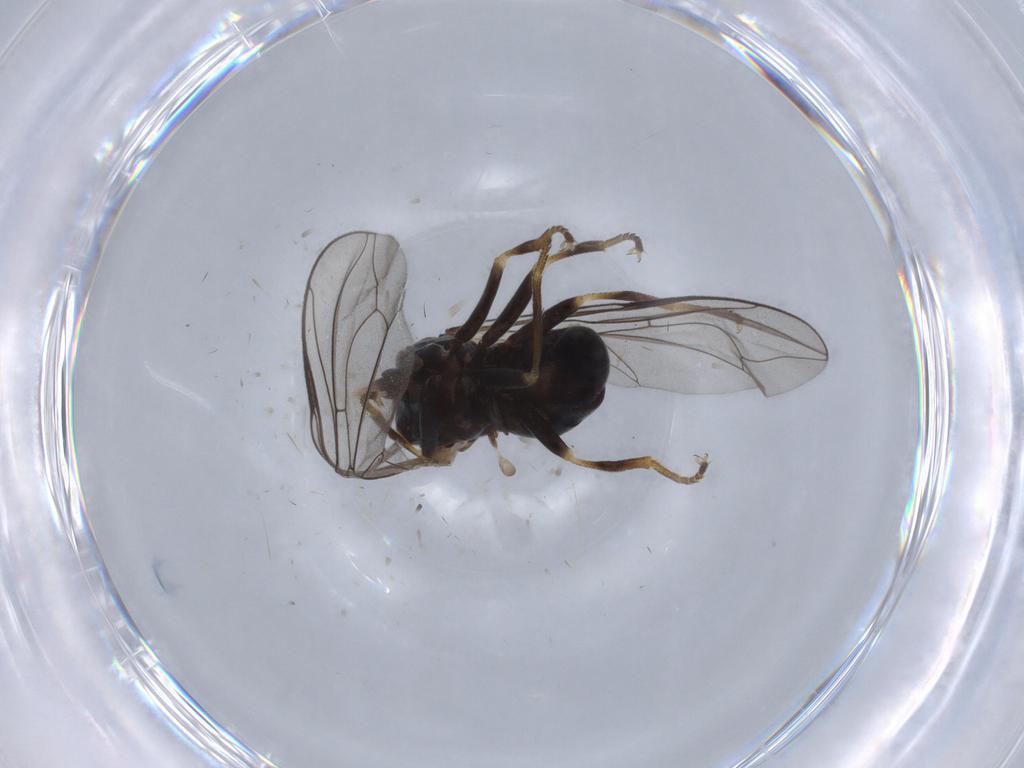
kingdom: Animalia
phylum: Arthropoda
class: Insecta
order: Diptera
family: Pipunculidae
